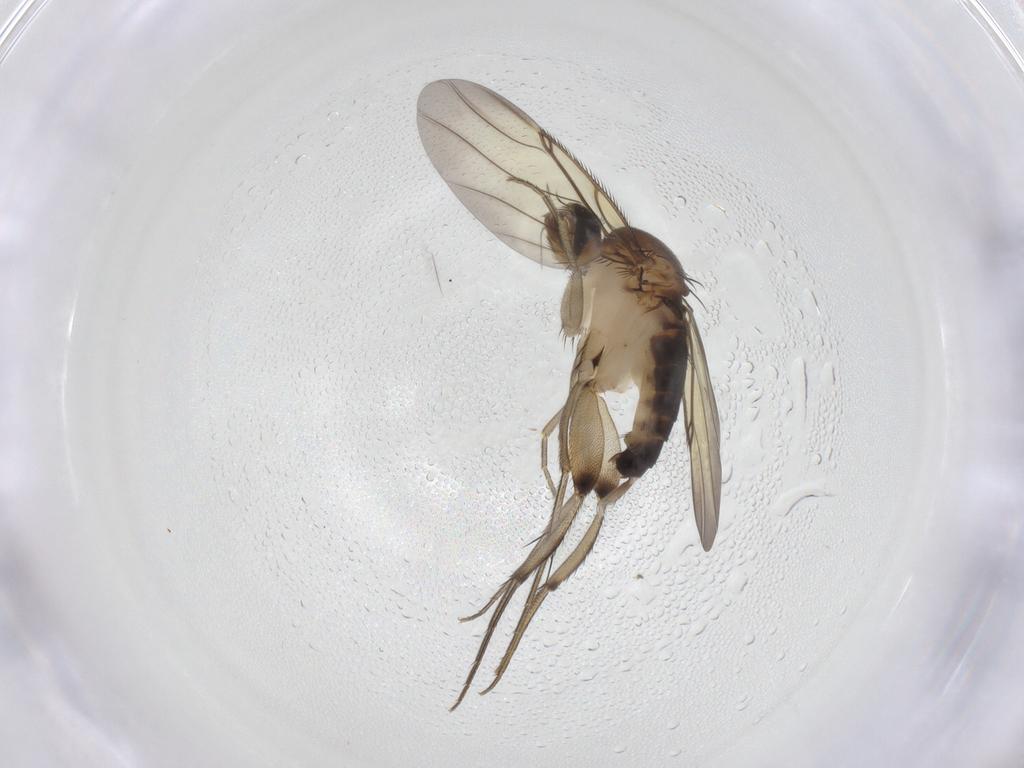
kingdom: Animalia
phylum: Arthropoda
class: Insecta
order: Diptera
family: Phoridae
